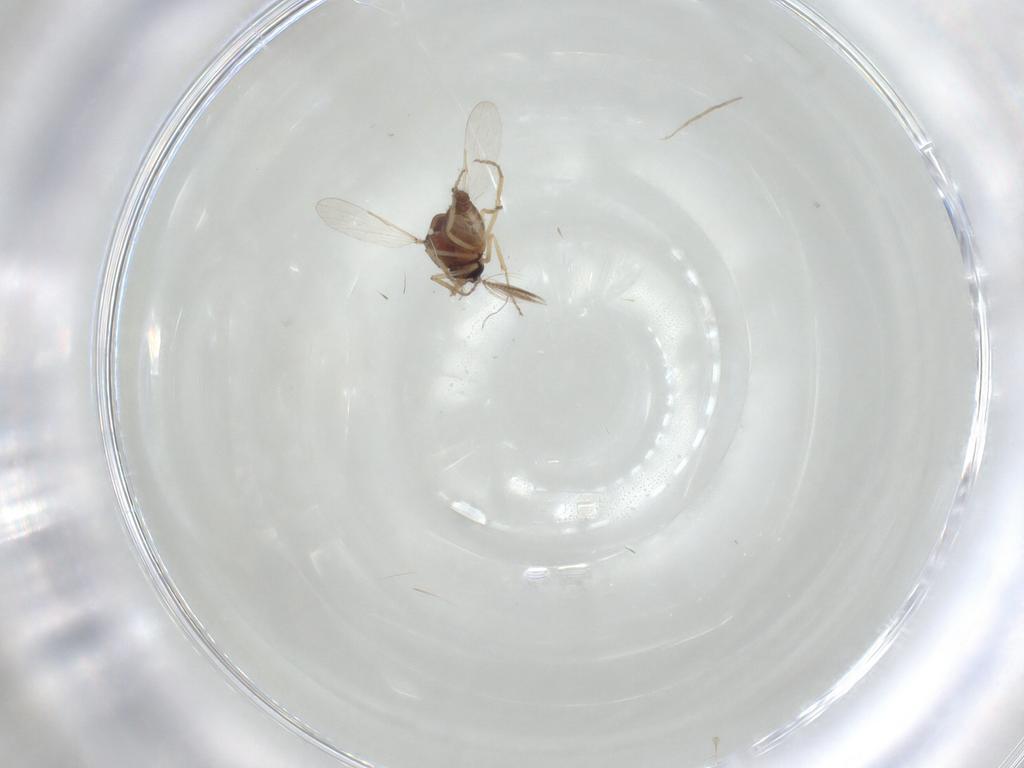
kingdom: Animalia
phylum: Arthropoda
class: Insecta
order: Diptera
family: Ceratopogonidae
